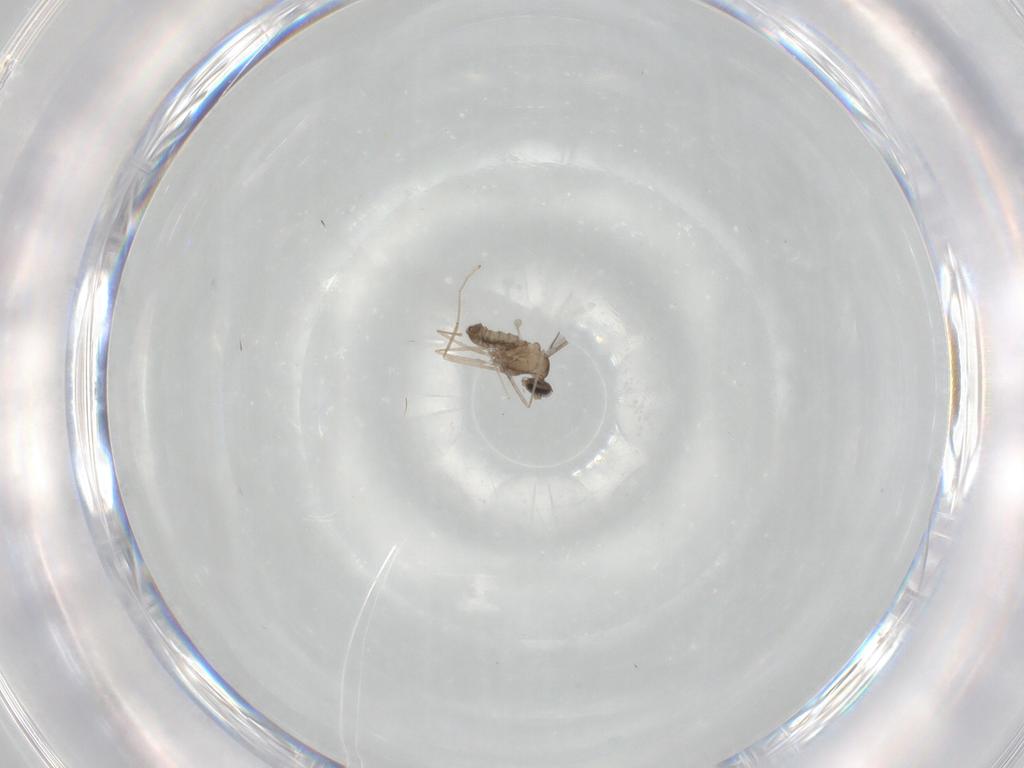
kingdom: Animalia
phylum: Arthropoda
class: Insecta
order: Diptera
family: Cecidomyiidae
